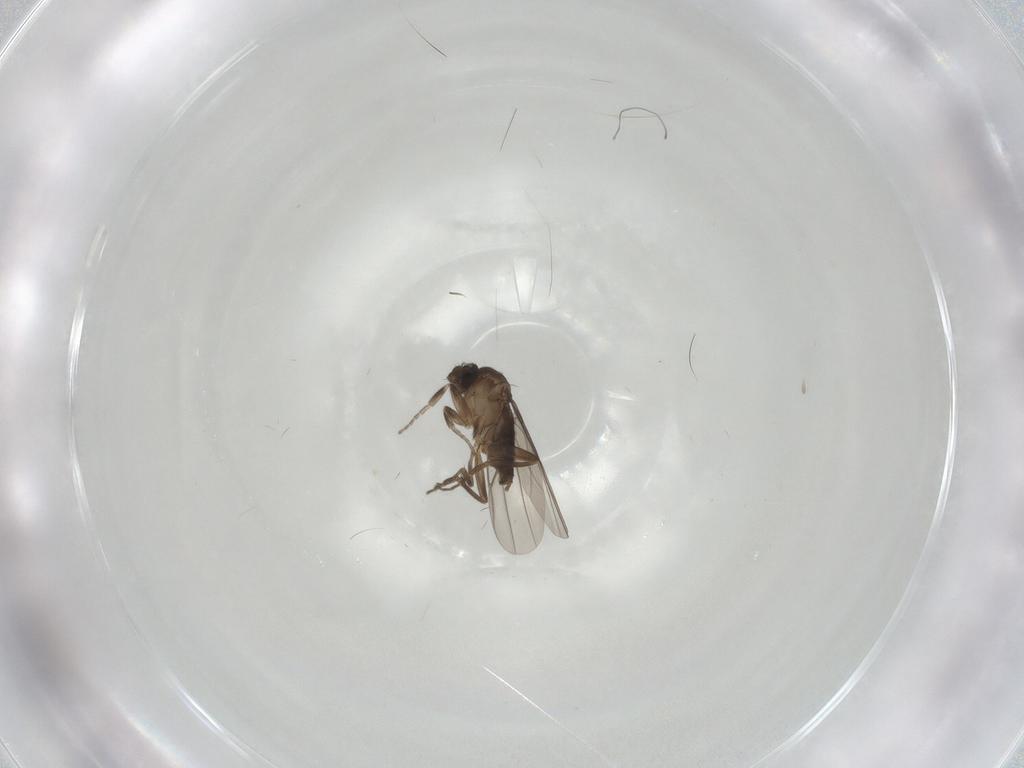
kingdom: Animalia
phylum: Arthropoda
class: Insecta
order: Diptera
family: Phoridae
